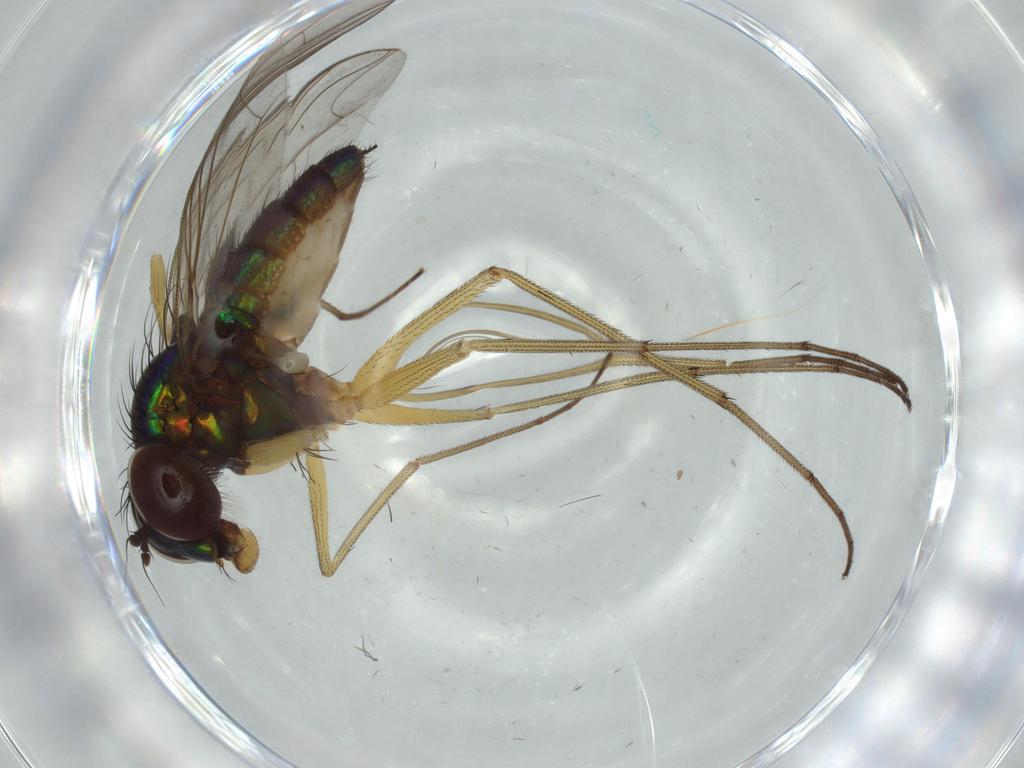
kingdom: Animalia
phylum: Arthropoda
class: Insecta
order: Diptera
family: Dolichopodidae
